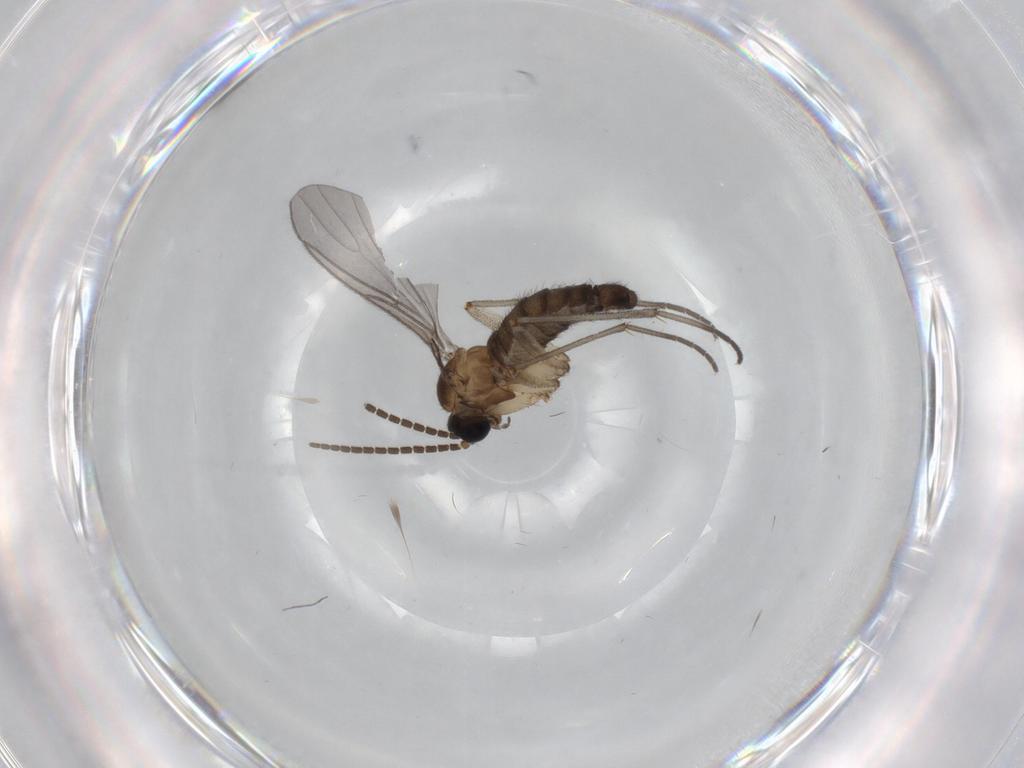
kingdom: Animalia
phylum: Arthropoda
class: Insecta
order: Diptera
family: Sciaridae
